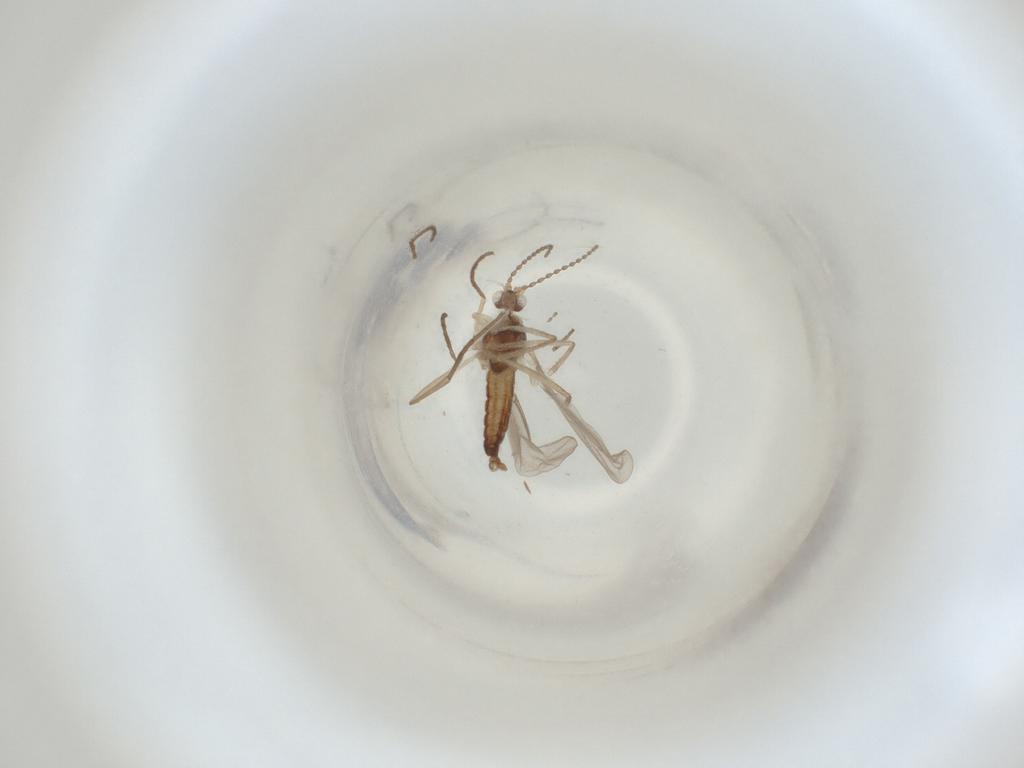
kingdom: Animalia
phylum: Arthropoda
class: Insecta
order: Diptera
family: Cecidomyiidae
